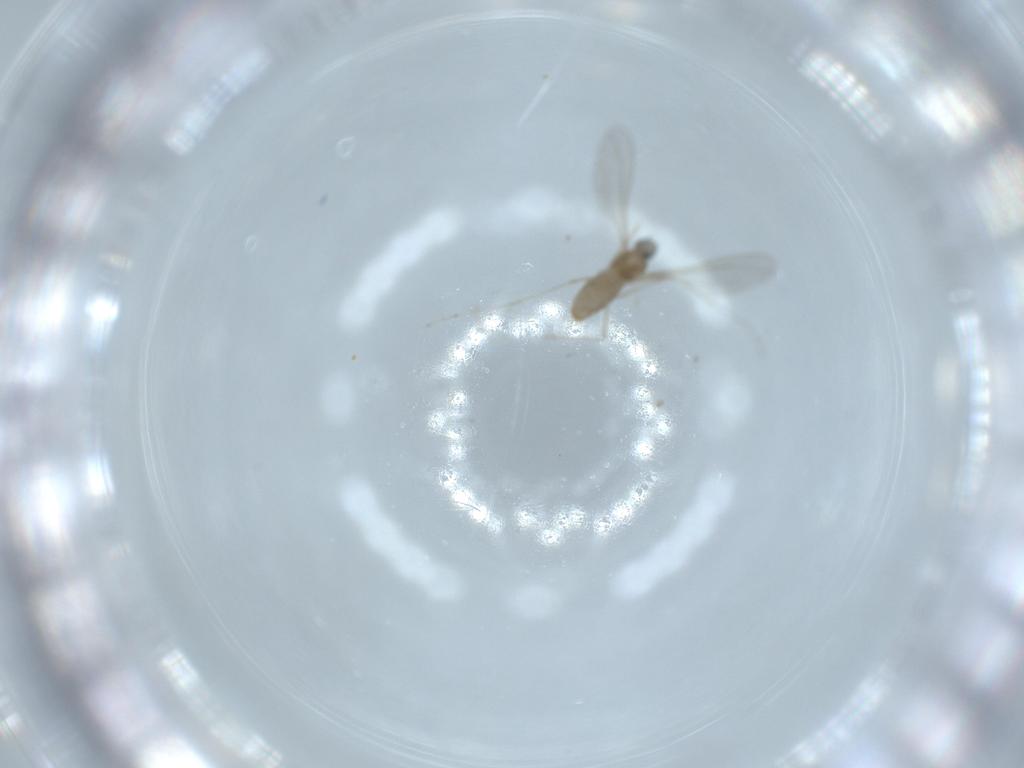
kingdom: Animalia
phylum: Arthropoda
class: Insecta
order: Diptera
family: Cecidomyiidae
